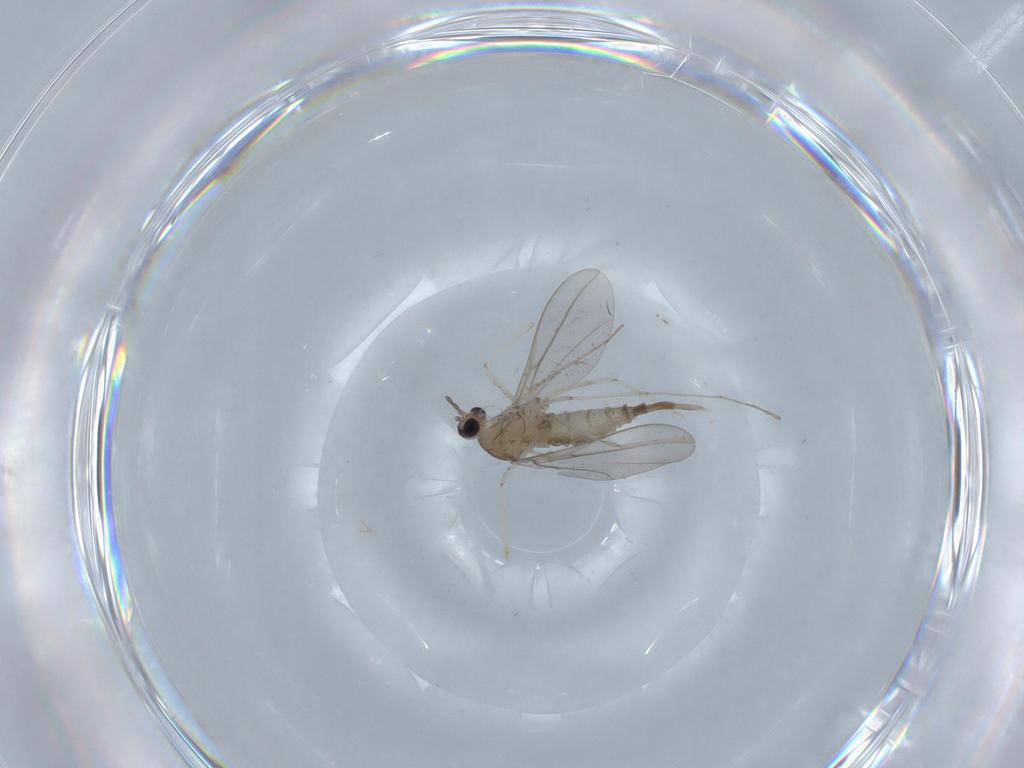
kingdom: Animalia
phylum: Arthropoda
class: Insecta
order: Diptera
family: Cecidomyiidae
